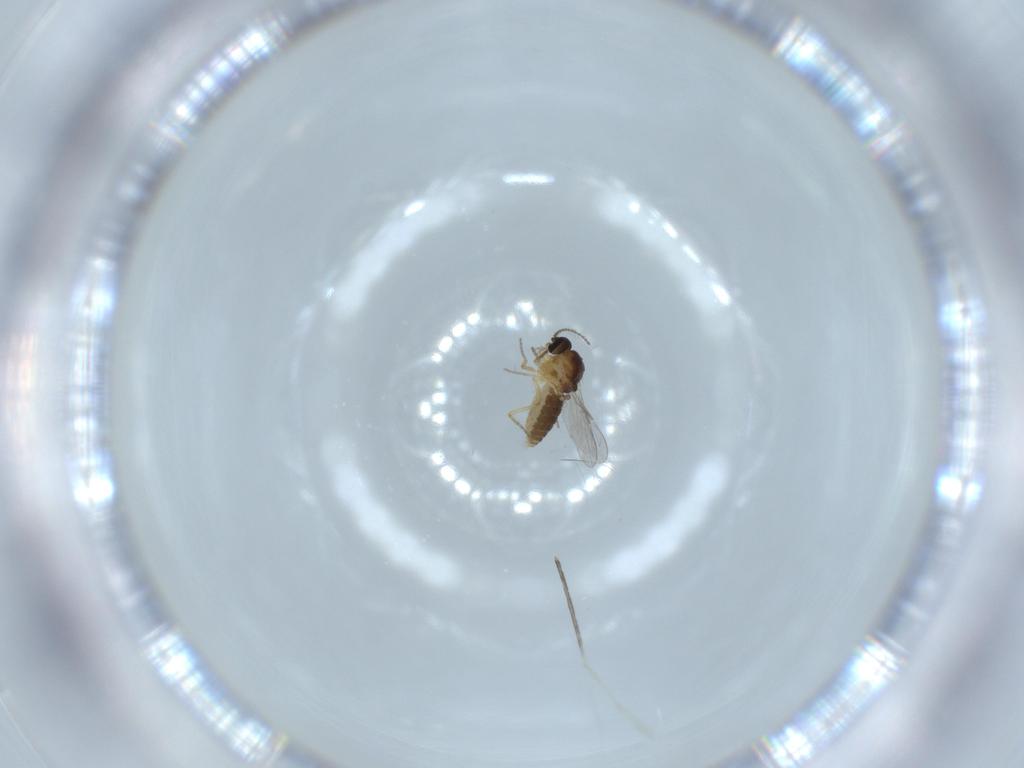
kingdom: Animalia
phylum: Arthropoda
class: Insecta
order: Diptera
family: Ceratopogonidae
